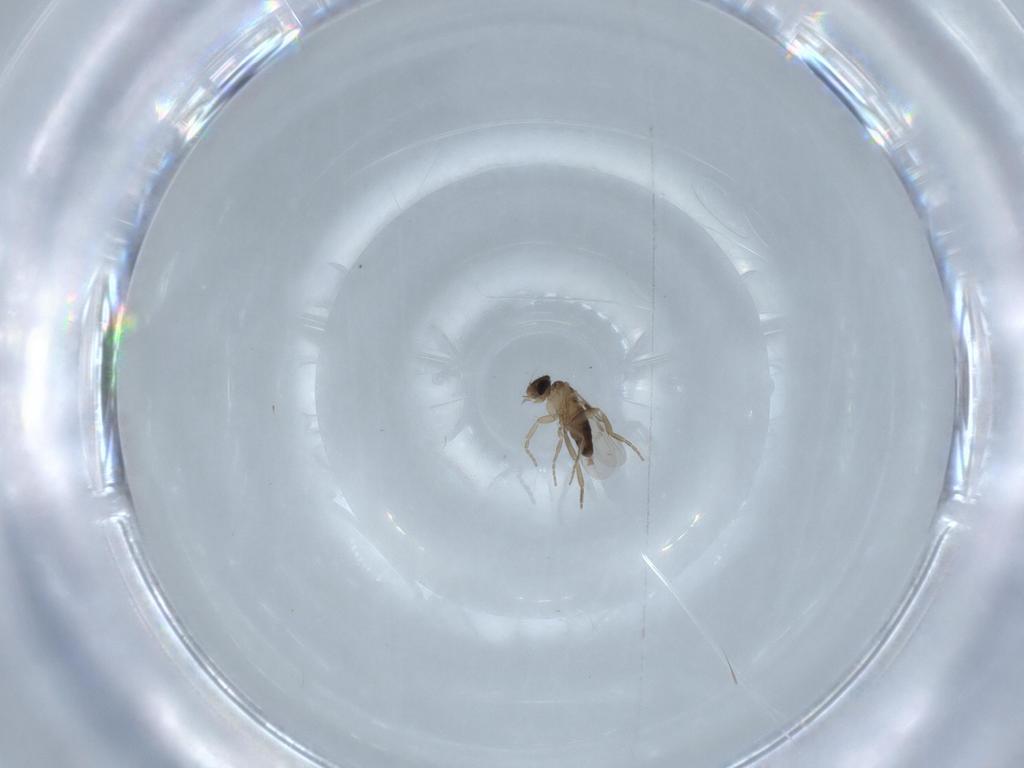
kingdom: Animalia
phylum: Arthropoda
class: Insecta
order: Diptera
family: Phoridae
